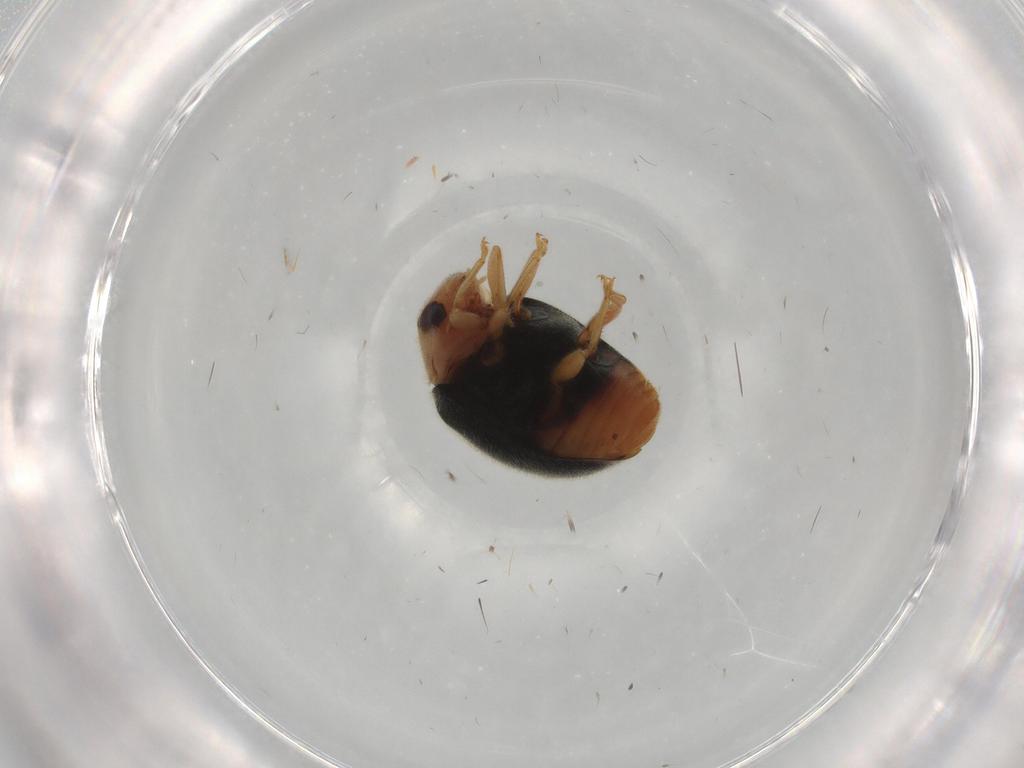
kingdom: Animalia
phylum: Arthropoda
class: Insecta
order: Coleoptera
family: Coccinellidae
